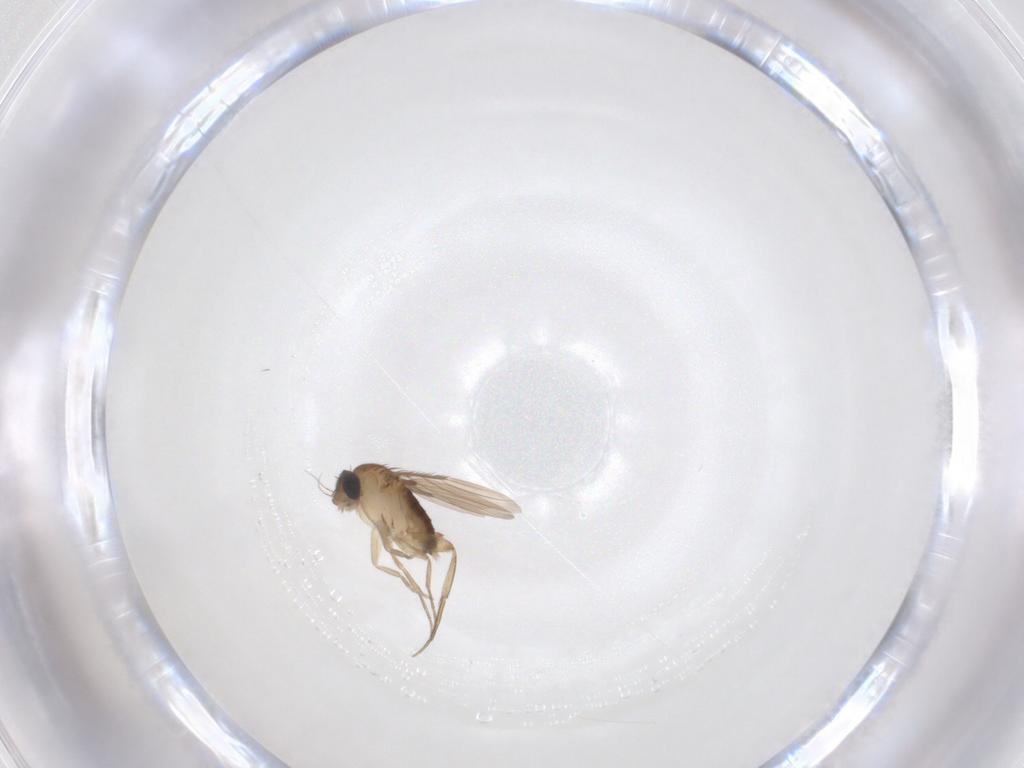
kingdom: Animalia
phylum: Arthropoda
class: Insecta
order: Diptera
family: Phoridae
